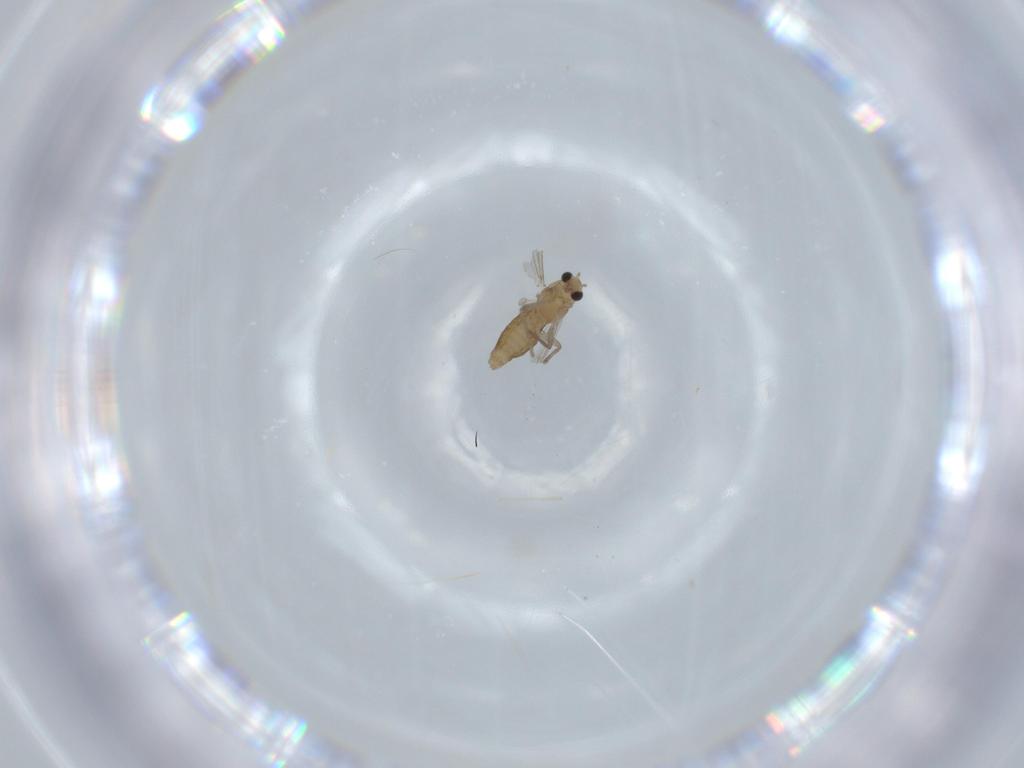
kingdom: Animalia
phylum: Arthropoda
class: Insecta
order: Diptera
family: Chironomidae
